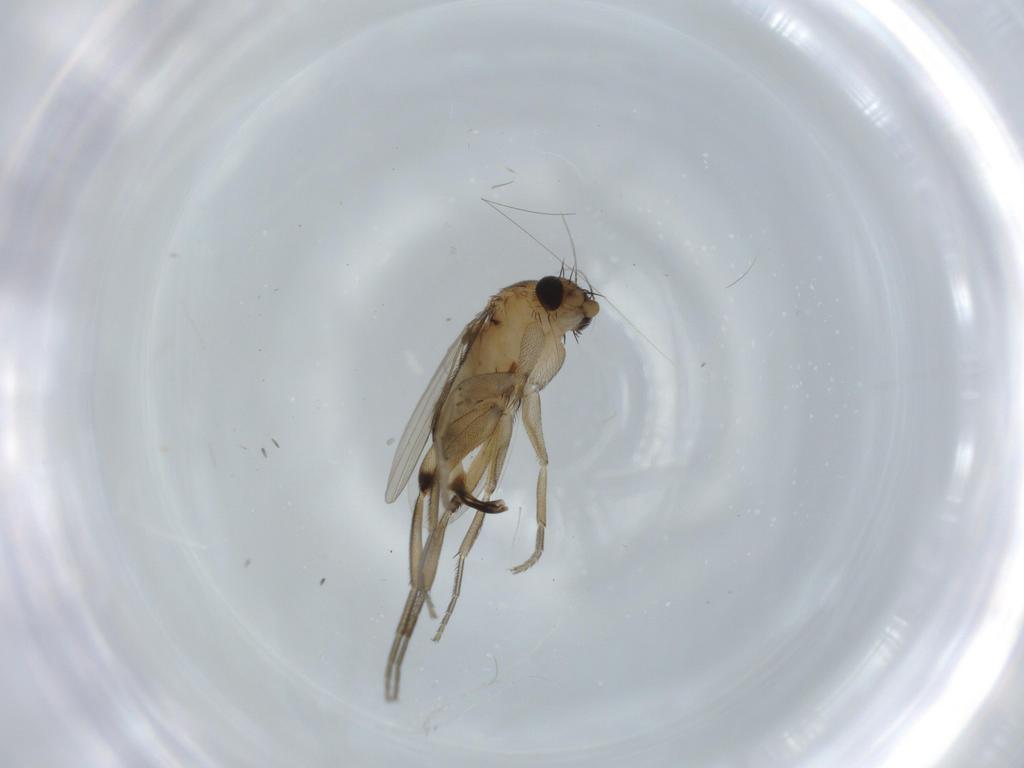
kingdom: Animalia
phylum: Arthropoda
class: Insecta
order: Diptera
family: Phoridae
